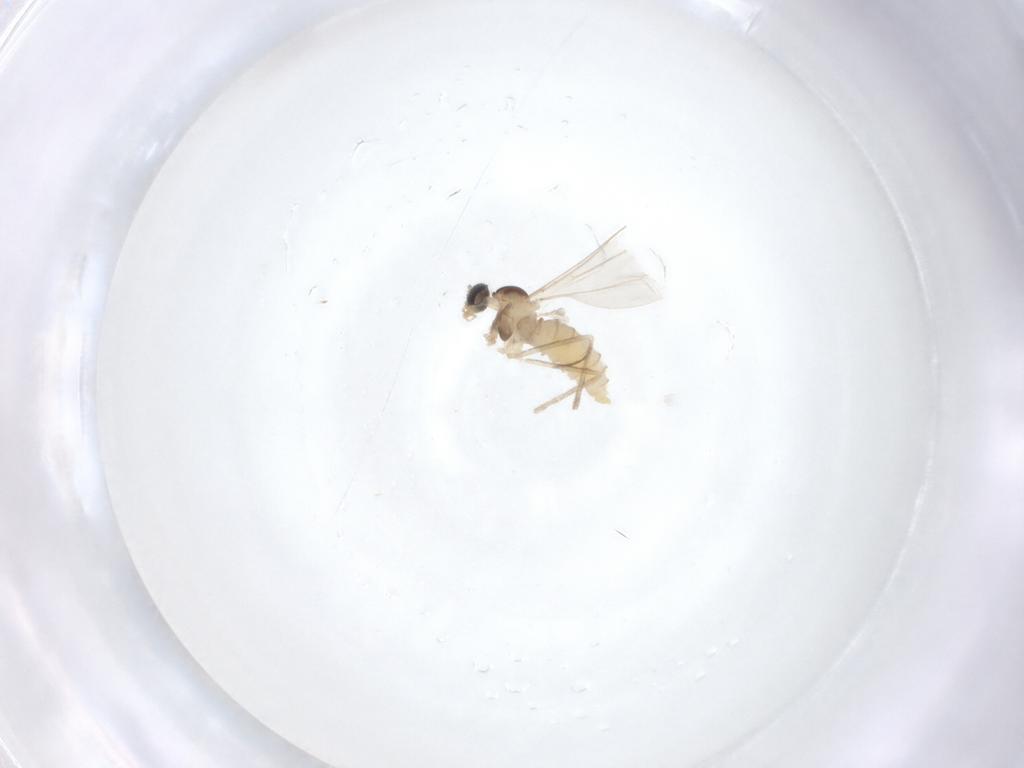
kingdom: Animalia
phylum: Arthropoda
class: Insecta
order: Diptera
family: Cecidomyiidae
